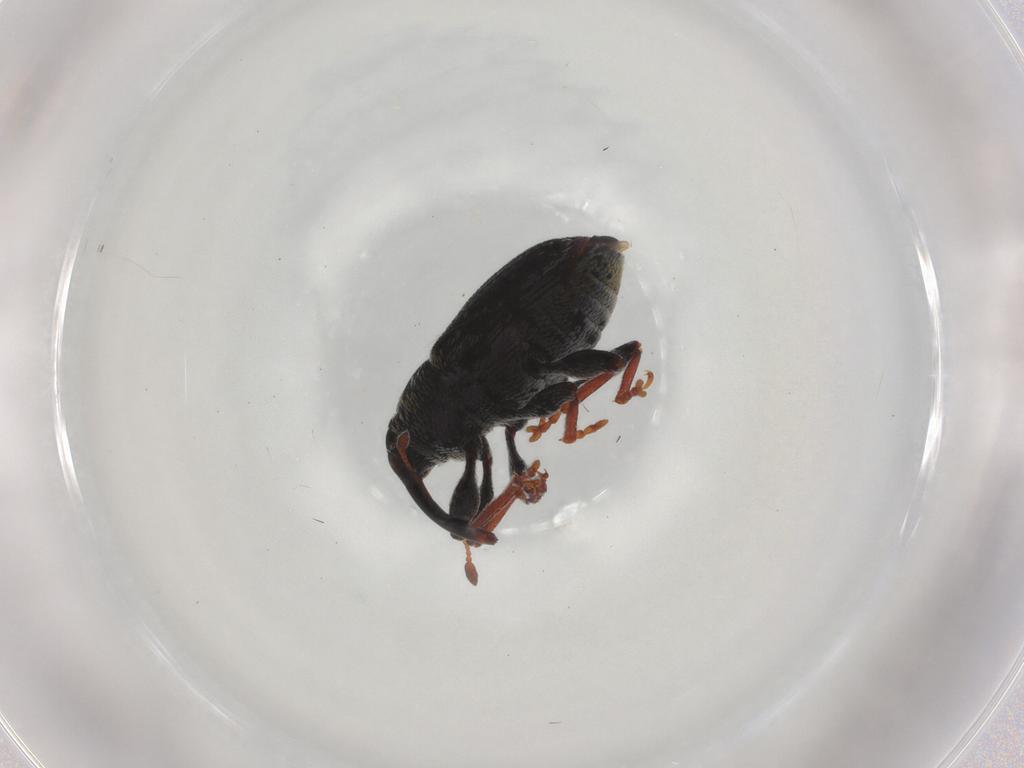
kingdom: Animalia
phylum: Arthropoda
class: Insecta
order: Coleoptera
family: Curculionidae
